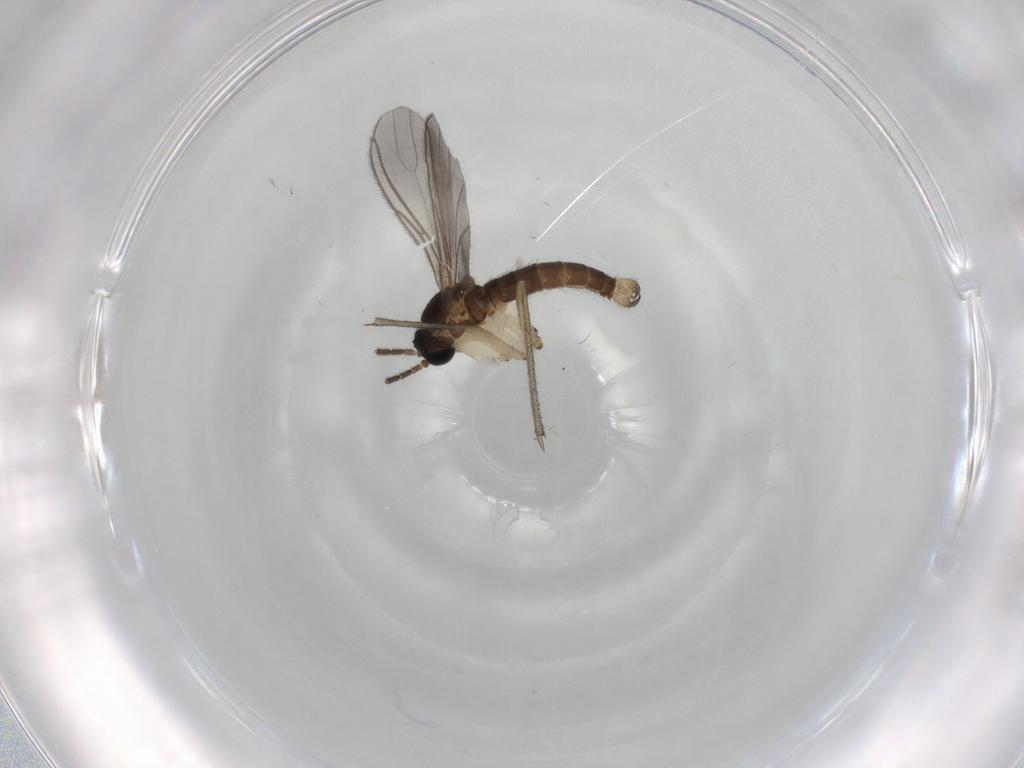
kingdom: Animalia
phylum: Arthropoda
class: Insecta
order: Diptera
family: Sciaridae
